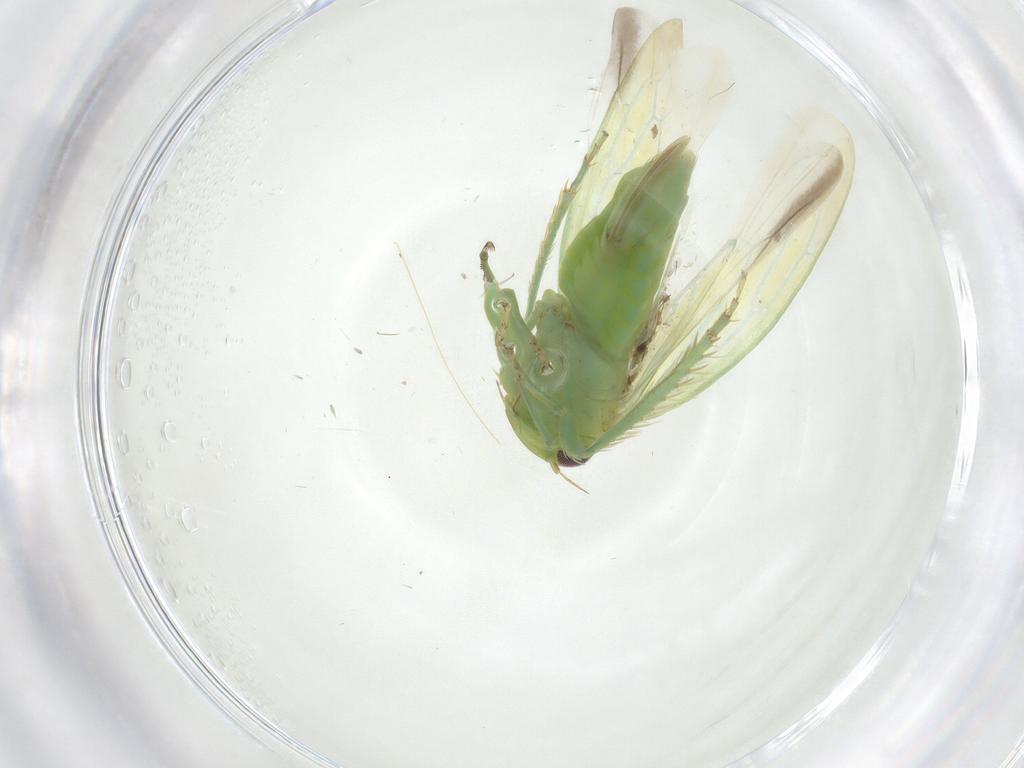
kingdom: Animalia
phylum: Arthropoda
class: Insecta
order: Hemiptera
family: Cicadellidae
